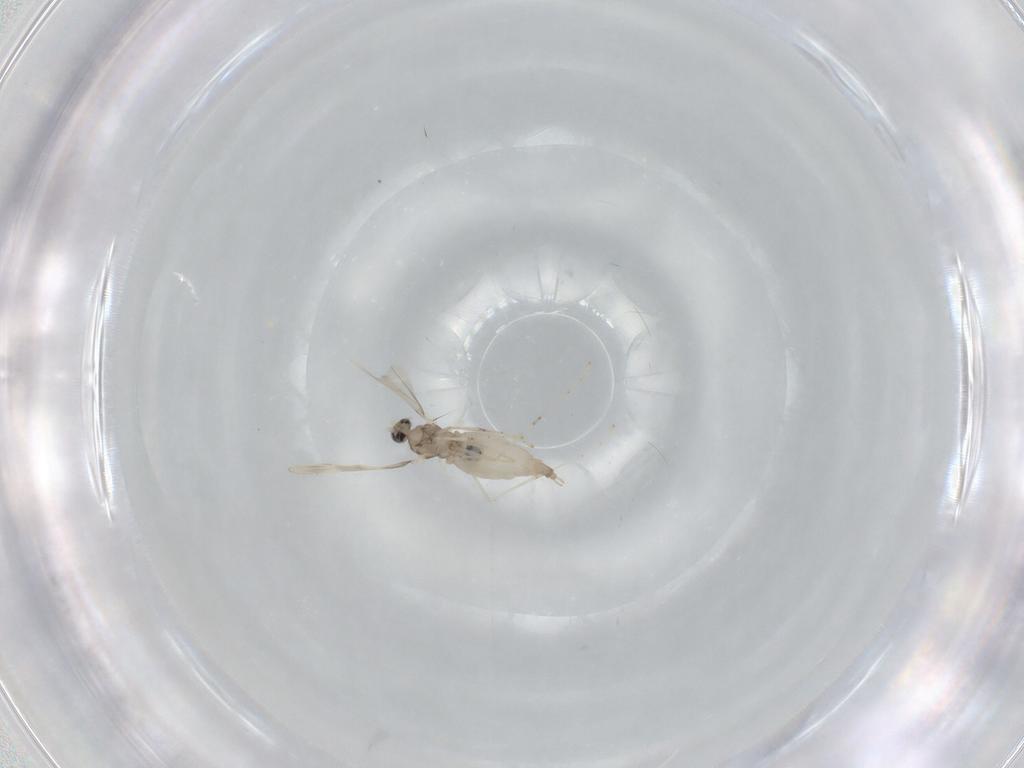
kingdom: Animalia
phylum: Arthropoda
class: Insecta
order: Diptera
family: Cecidomyiidae
